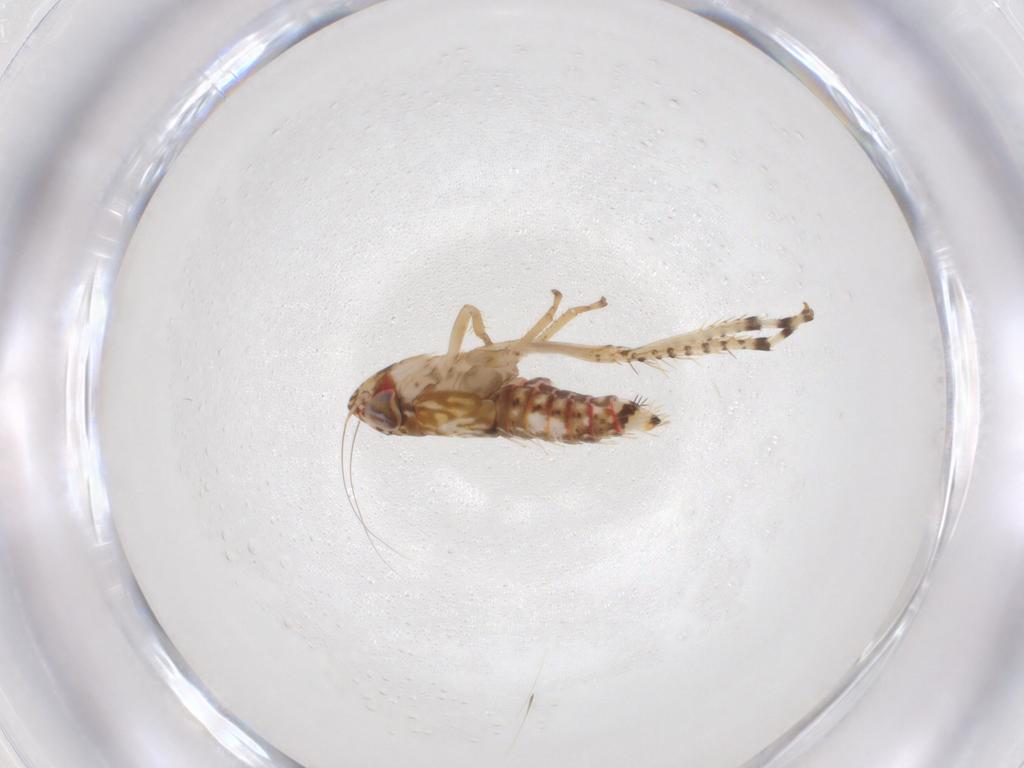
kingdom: Animalia
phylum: Arthropoda
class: Insecta
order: Hemiptera
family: Cicadellidae
